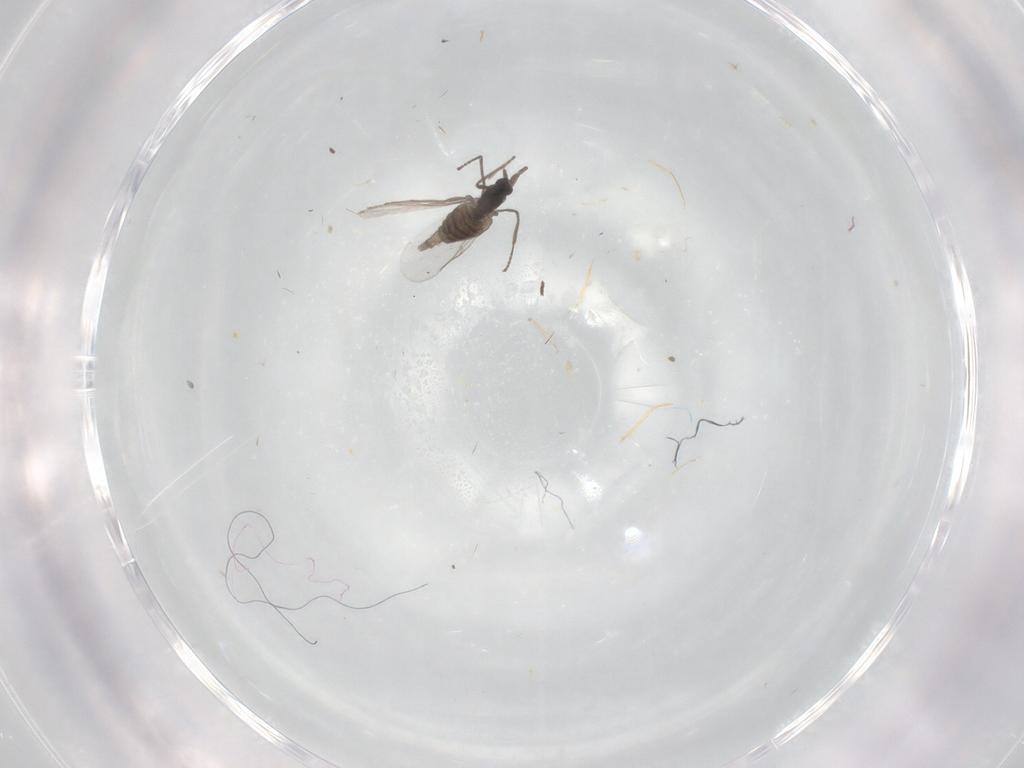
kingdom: Animalia
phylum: Arthropoda
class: Insecta
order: Diptera
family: Cecidomyiidae
